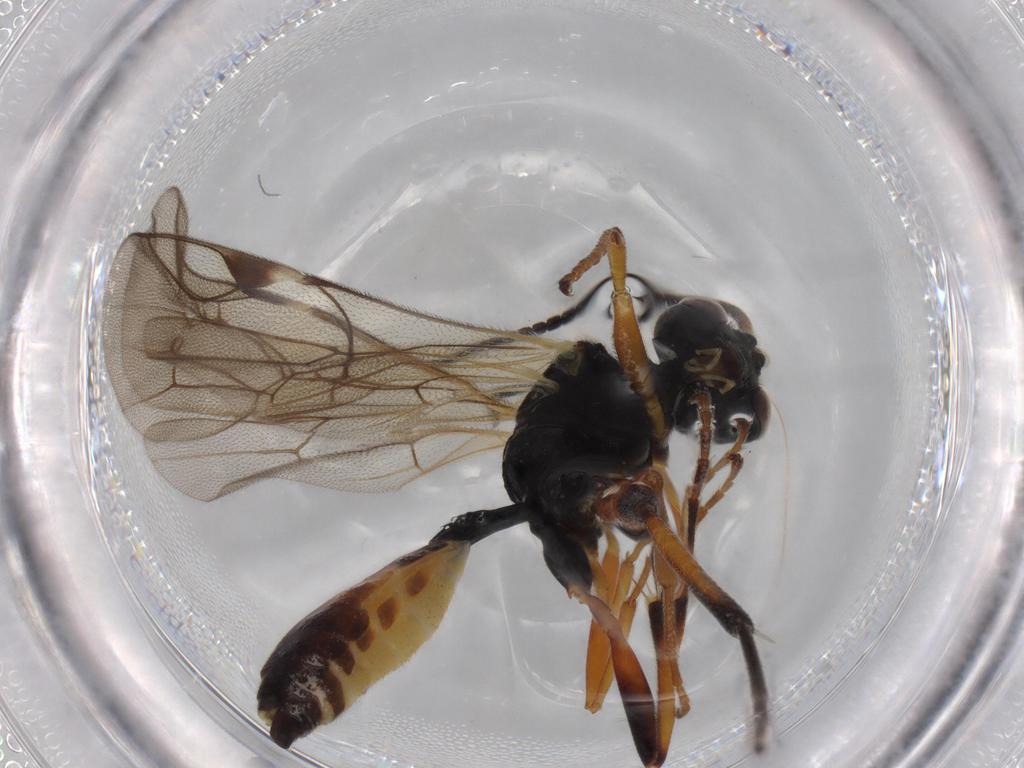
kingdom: Animalia
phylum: Arthropoda
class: Insecta
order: Hymenoptera
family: Ichneumonidae
